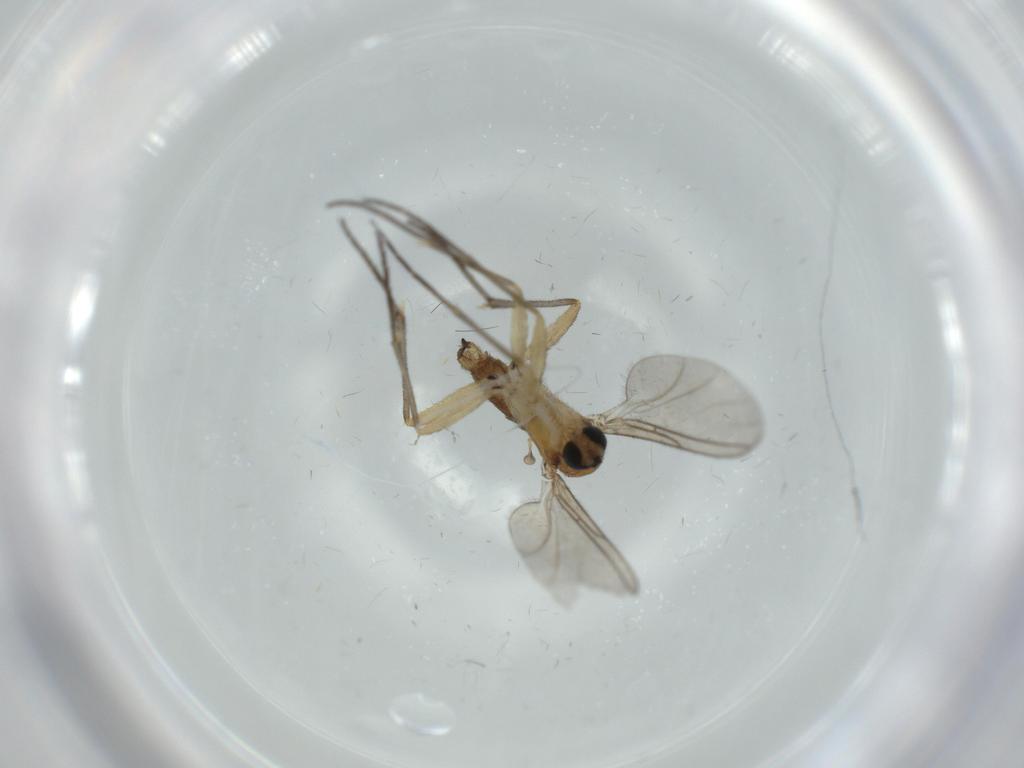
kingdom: Animalia
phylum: Arthropoda
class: Insecta
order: Diptera
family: Sciaridae
